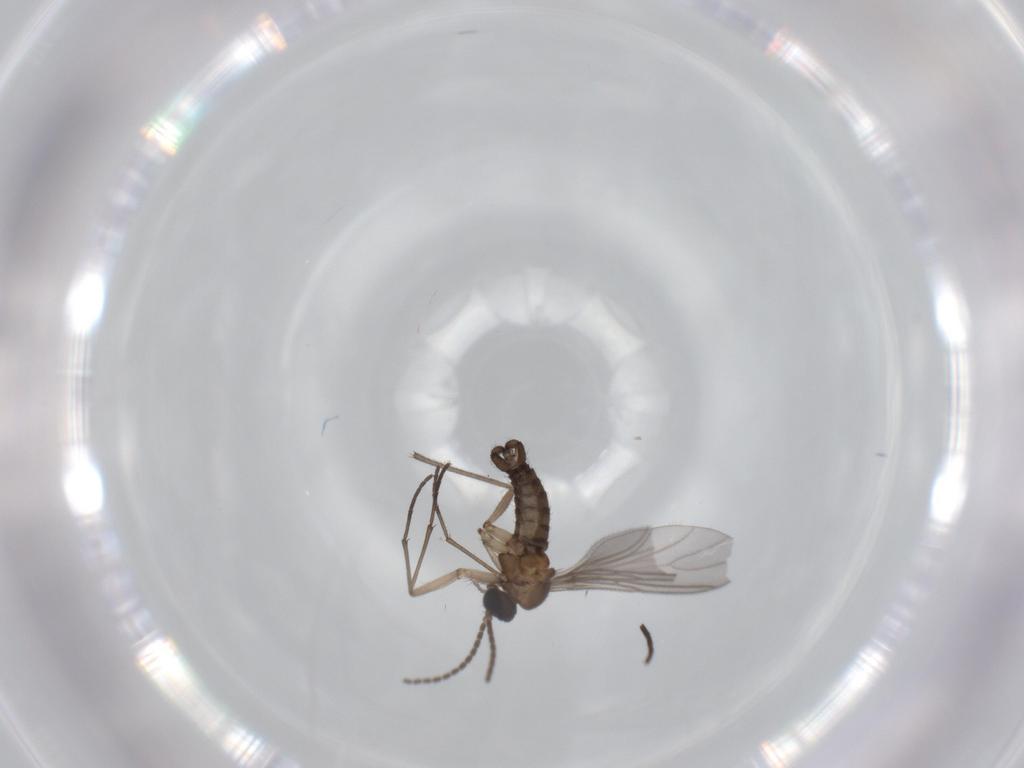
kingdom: Animalia
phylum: Arthropoda
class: Insecta
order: Diptera
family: Sciaridae
